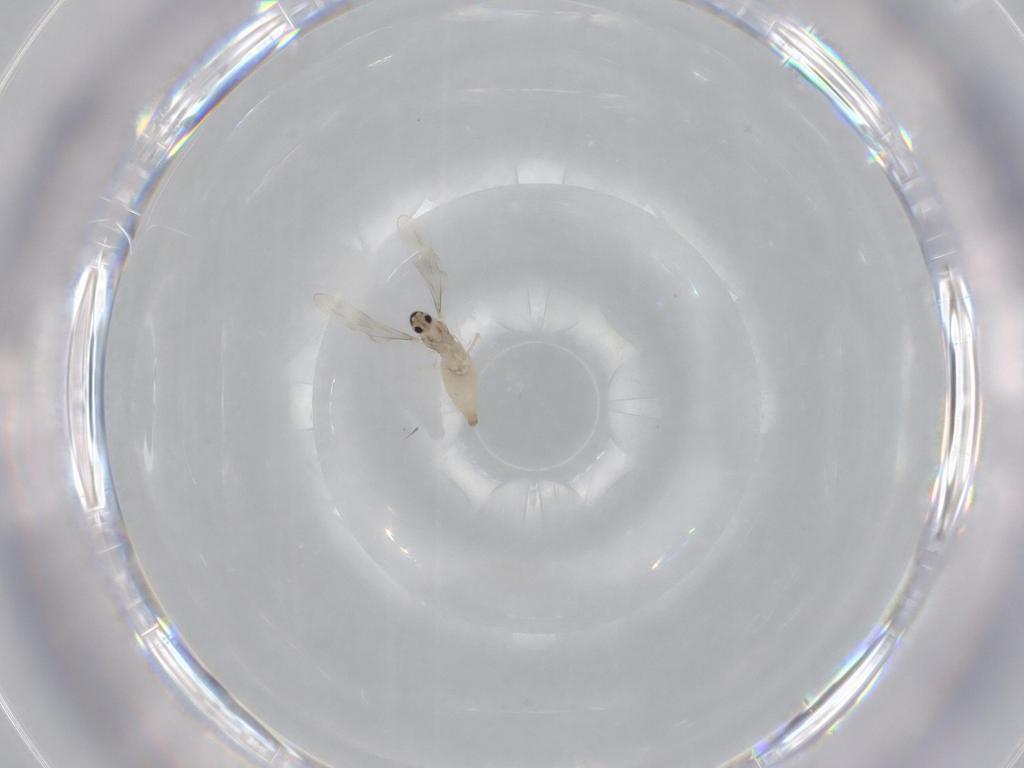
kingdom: Animalia
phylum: Arthropoda
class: Insecta
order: Diptera
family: Cecidomyiidae
